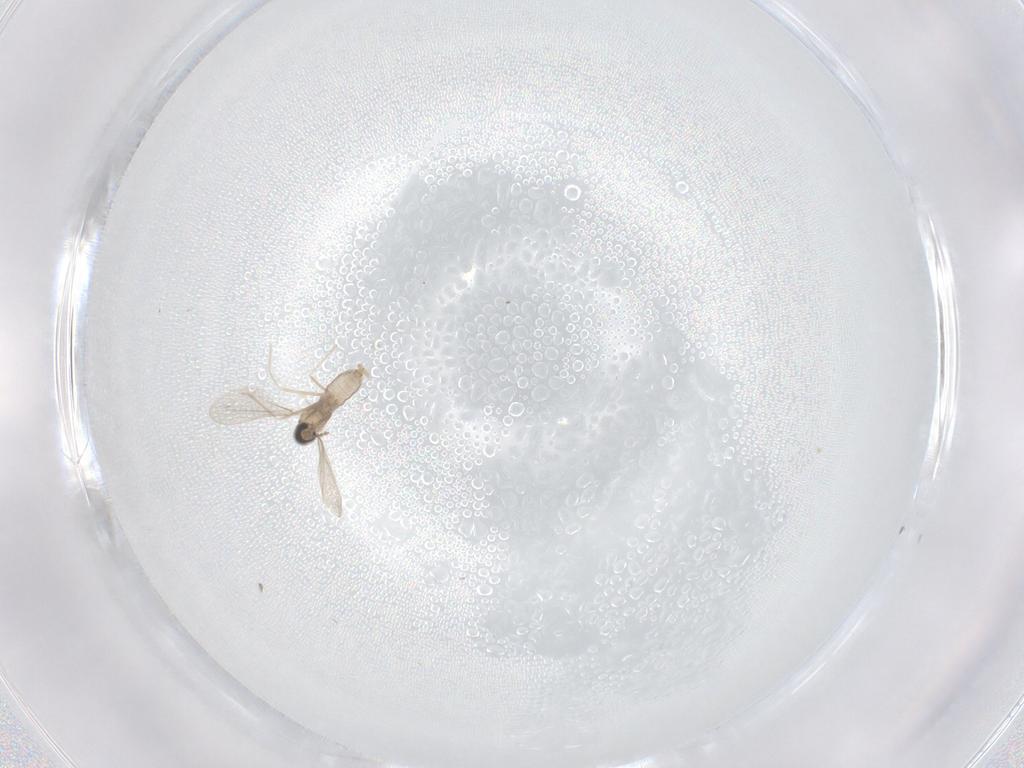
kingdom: Animalia
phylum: Arthropoda
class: Insecta
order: Diptera
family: Cecidomyiidae
